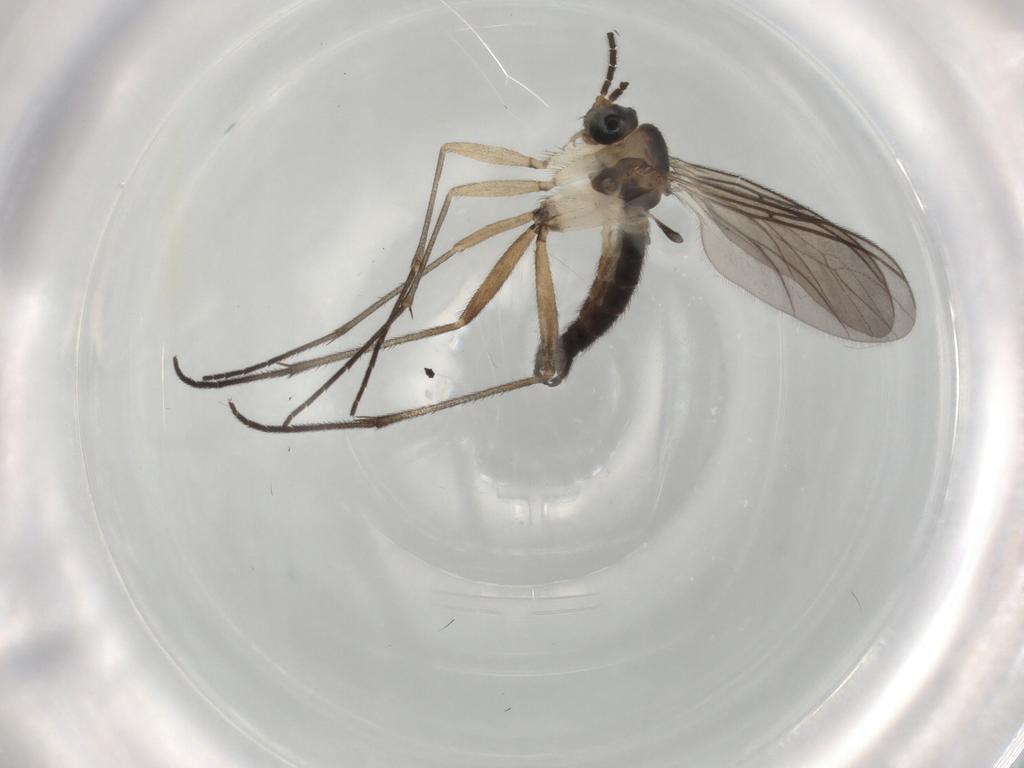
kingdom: Animalia
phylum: Arthropoda
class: Insecta
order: Diptera
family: Sciaridae
